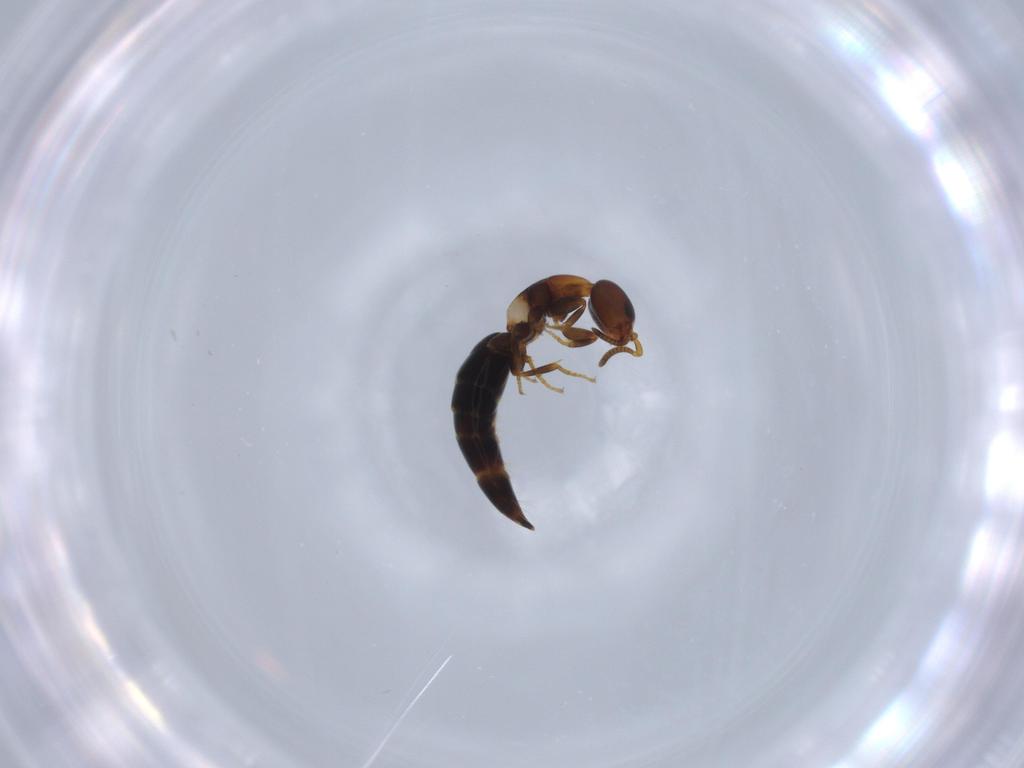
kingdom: Animalia
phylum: Arthropoda
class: Insecta
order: Hymenoptera
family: Bethylidae
